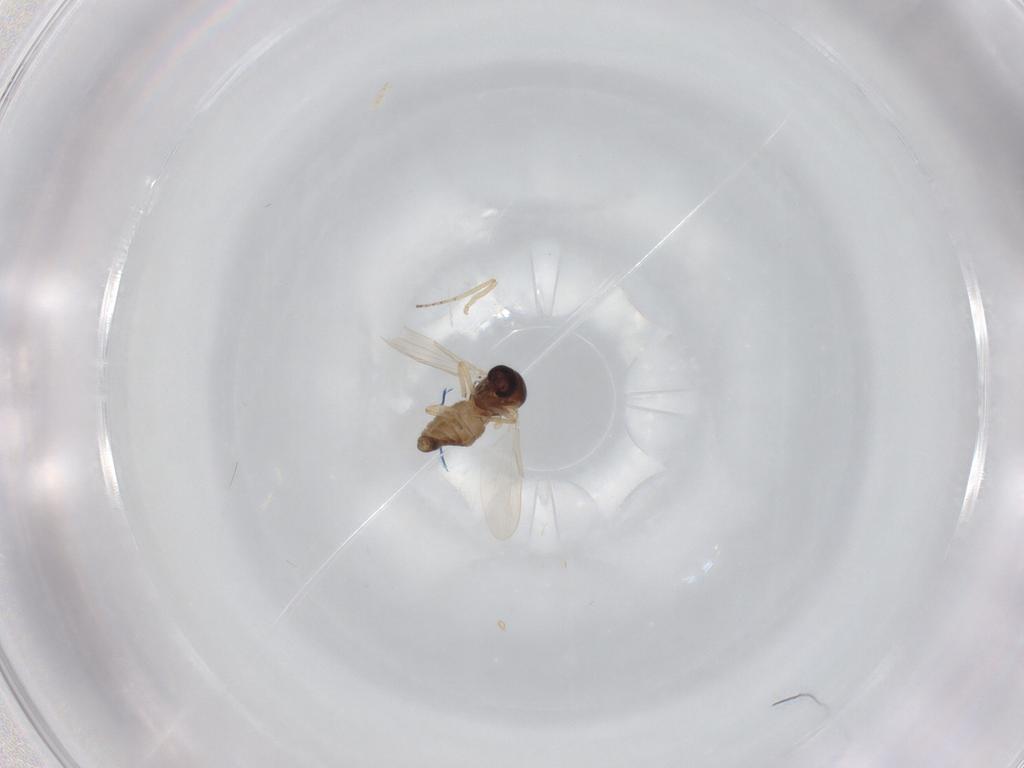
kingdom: Animalia
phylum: Arthropoda
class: Insecta
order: Diptera
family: Ceratopogonidae
